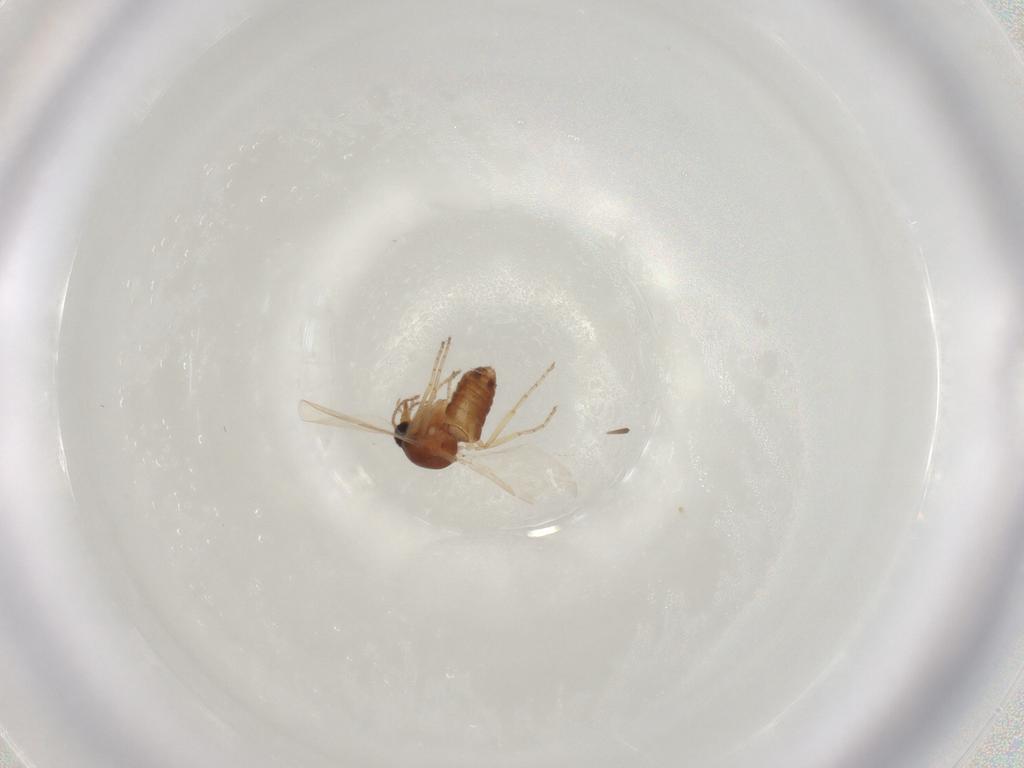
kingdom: Animalia
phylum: Arthropoda
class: Insecta
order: Diptera
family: Ceratopogonidae
